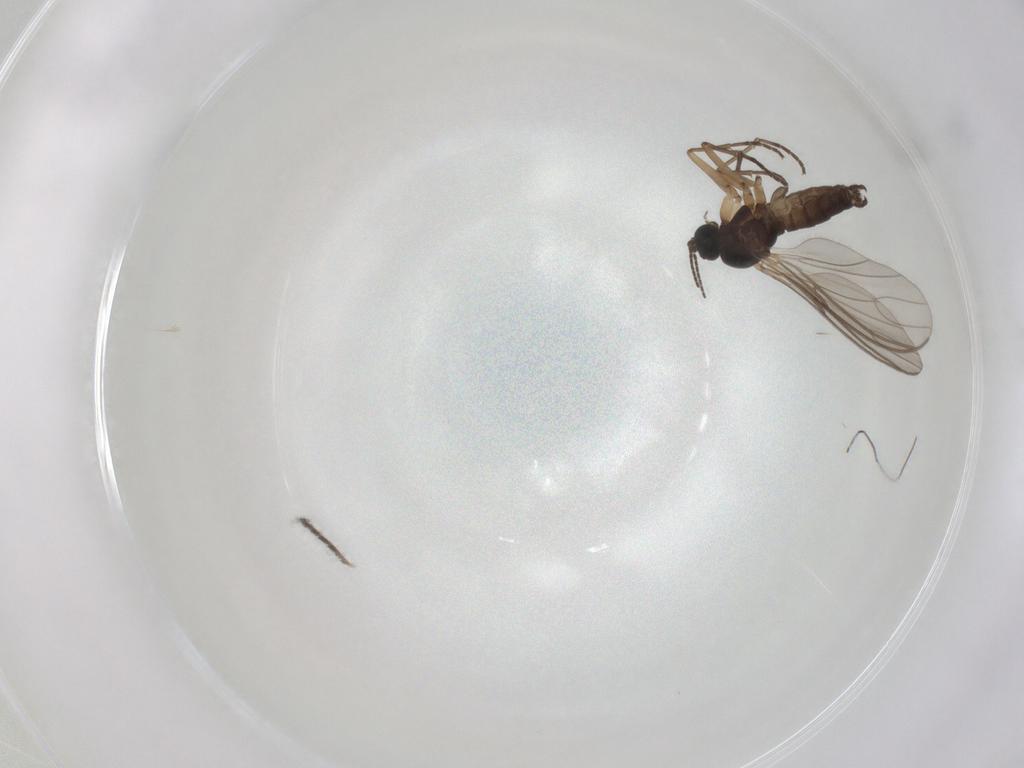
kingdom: Animalia
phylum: Arthropoda
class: Insecta
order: Diptera
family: Sciaridae
